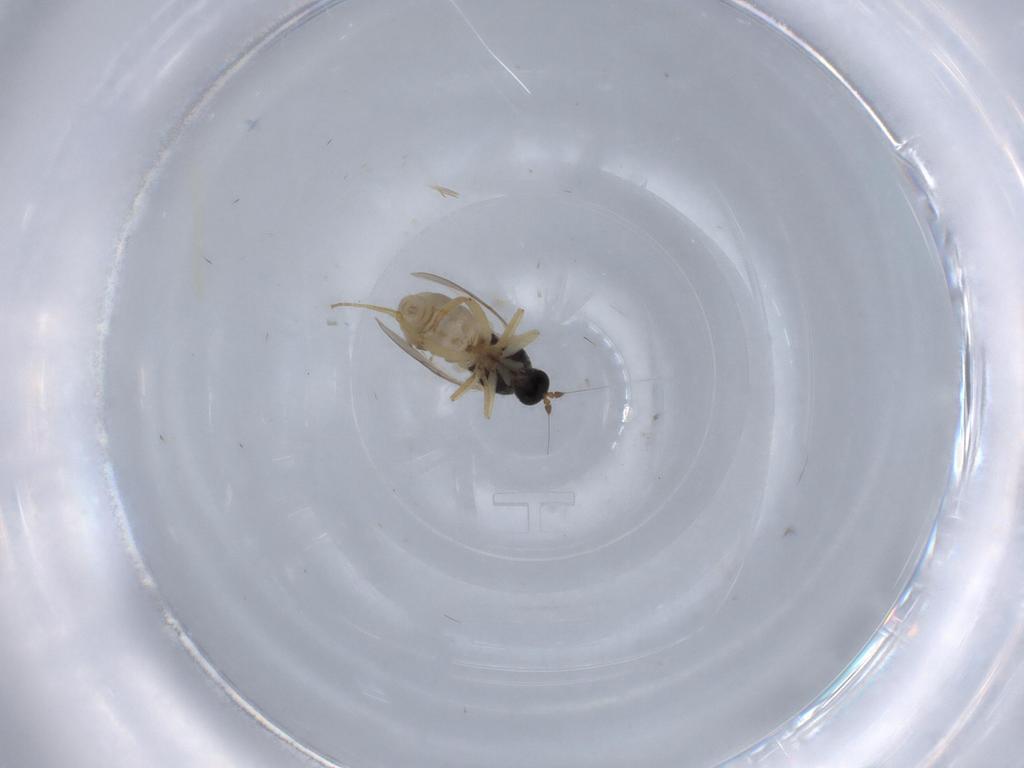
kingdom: Animalia
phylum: Arthropoda
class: Insecta
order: Diptera
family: Hybotidae
